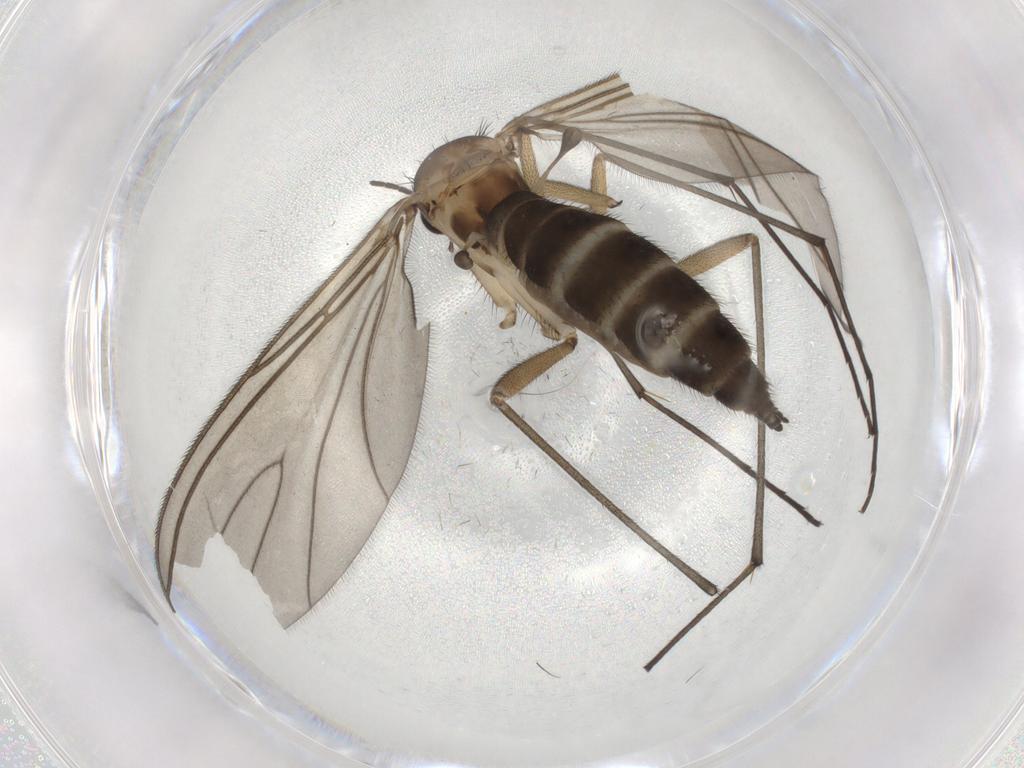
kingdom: Animalia
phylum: Arthropoda
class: Insecta
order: Diptera
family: Sciaridae
